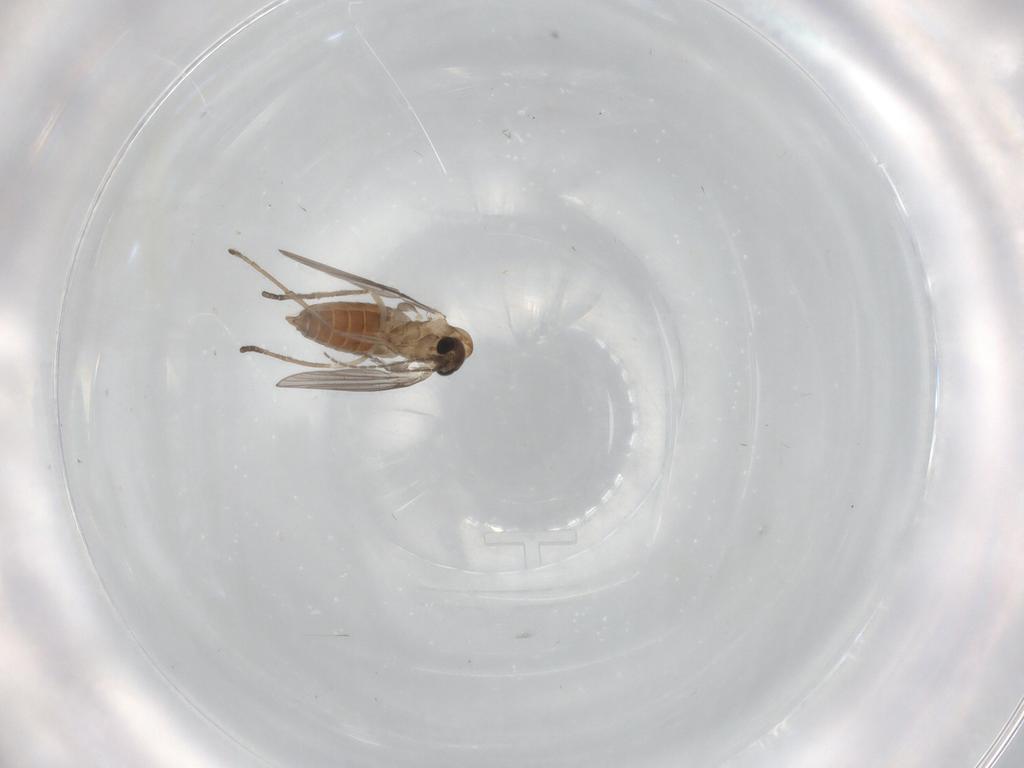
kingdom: Animalia
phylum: Arthropoda
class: Insecta
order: Diptera
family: Psychodidae
